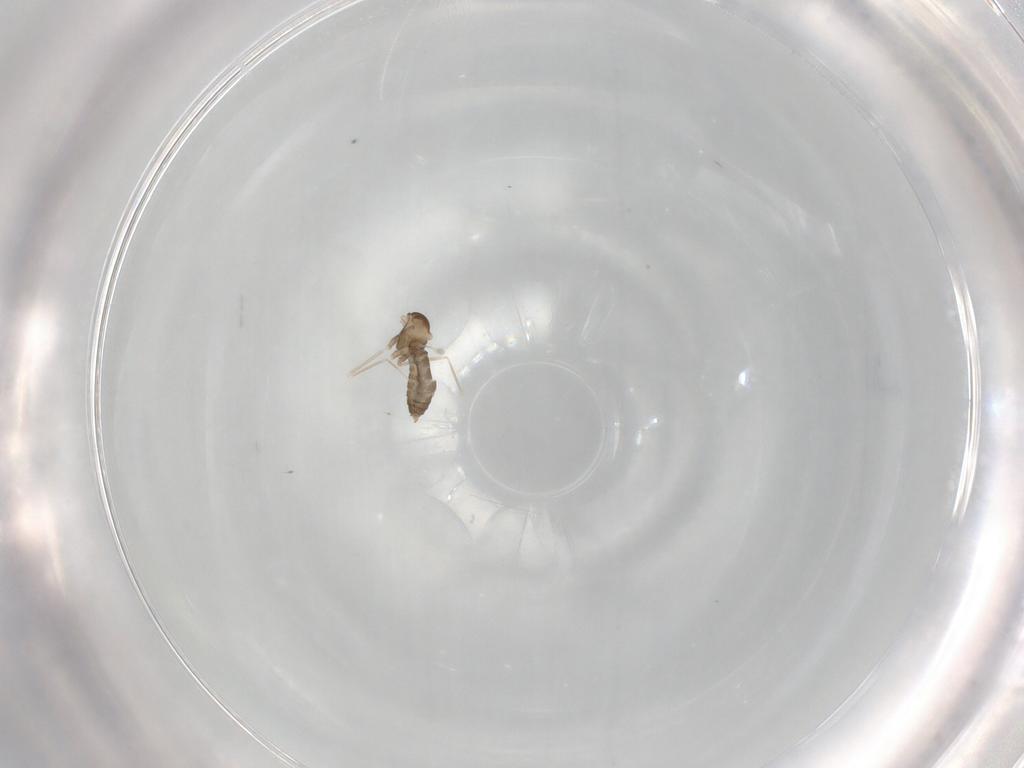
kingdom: Animalia
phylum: Arthropoda
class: Insecta
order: Diptera
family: Cecidomyiidae
